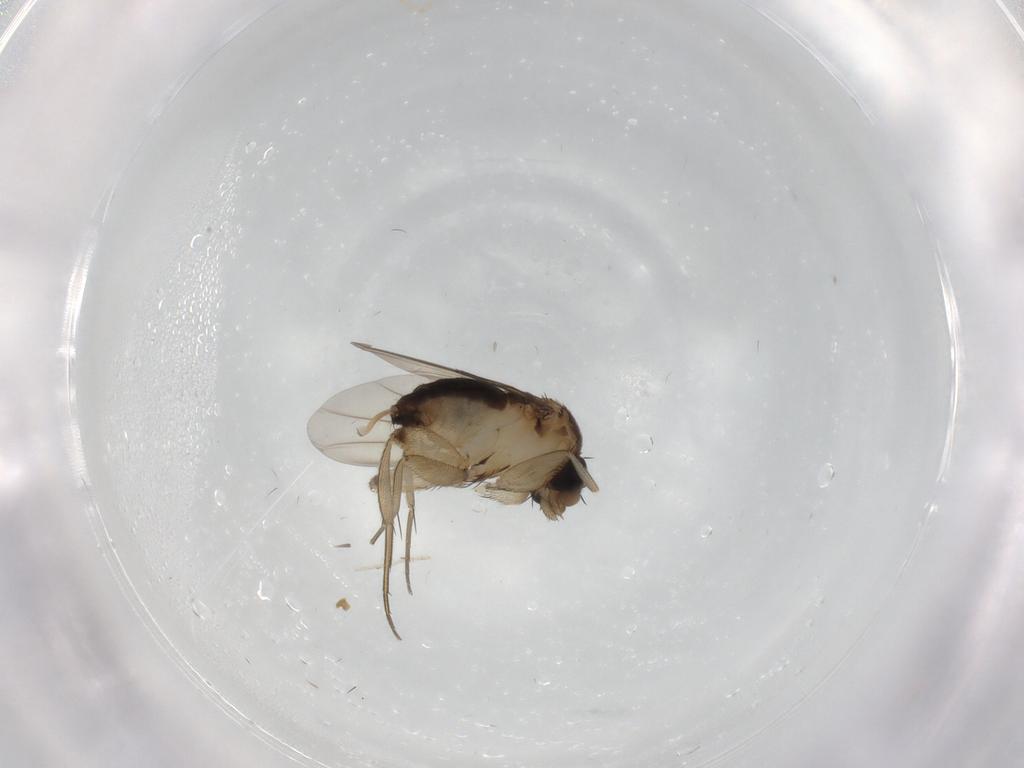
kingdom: Animalia
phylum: Arthropoda
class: Insecta
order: Diptera
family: Phoridae
